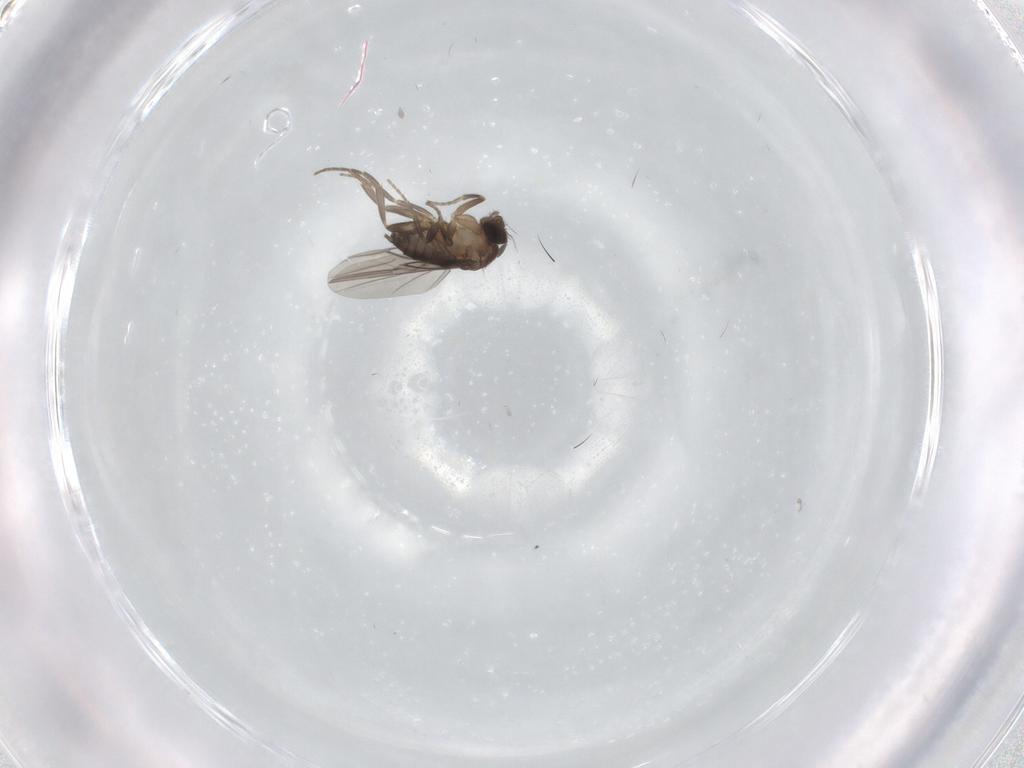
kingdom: Animalia
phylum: Arthropoda
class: Insecta
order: Diptera
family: Phoridae
